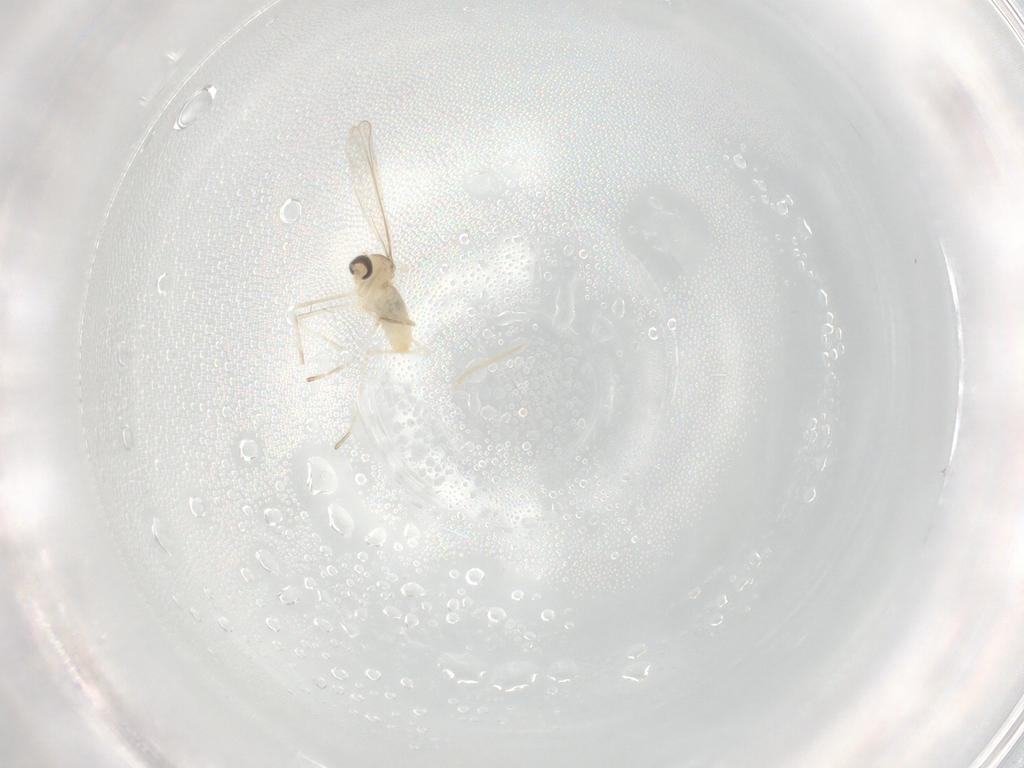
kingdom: Animalia
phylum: Arthropoda
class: Insecta
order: Diptera
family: Cecidomyiidae
